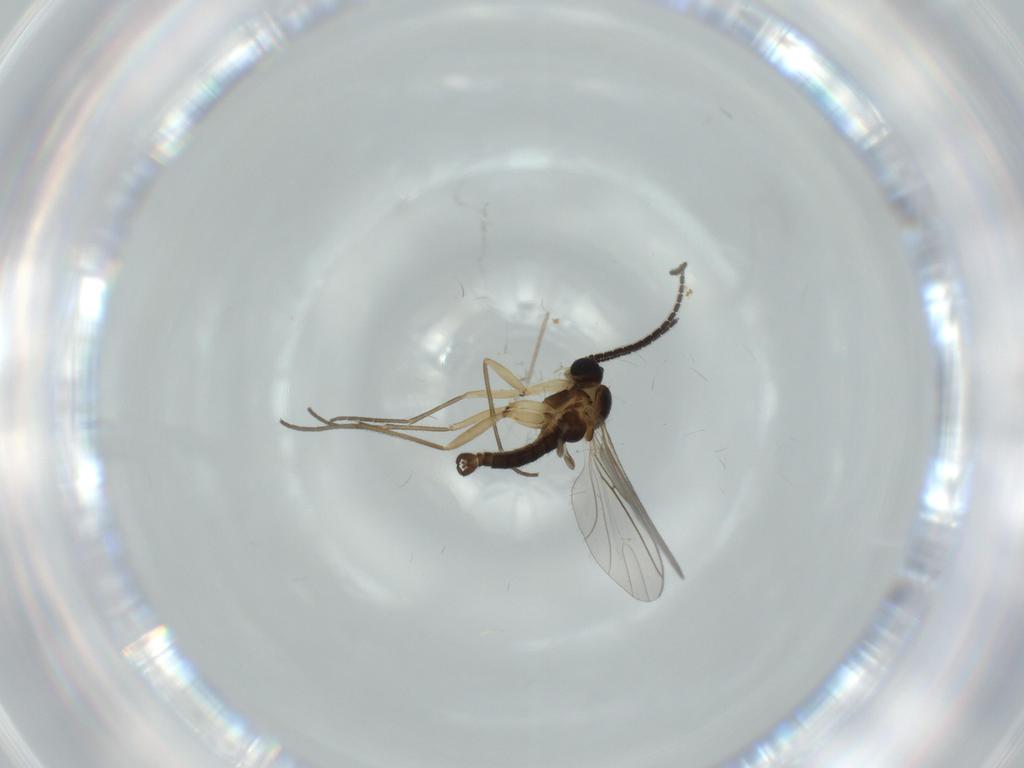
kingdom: Animalia
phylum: Arthropoda
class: Insecta
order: Diptera
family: Sciaridae
